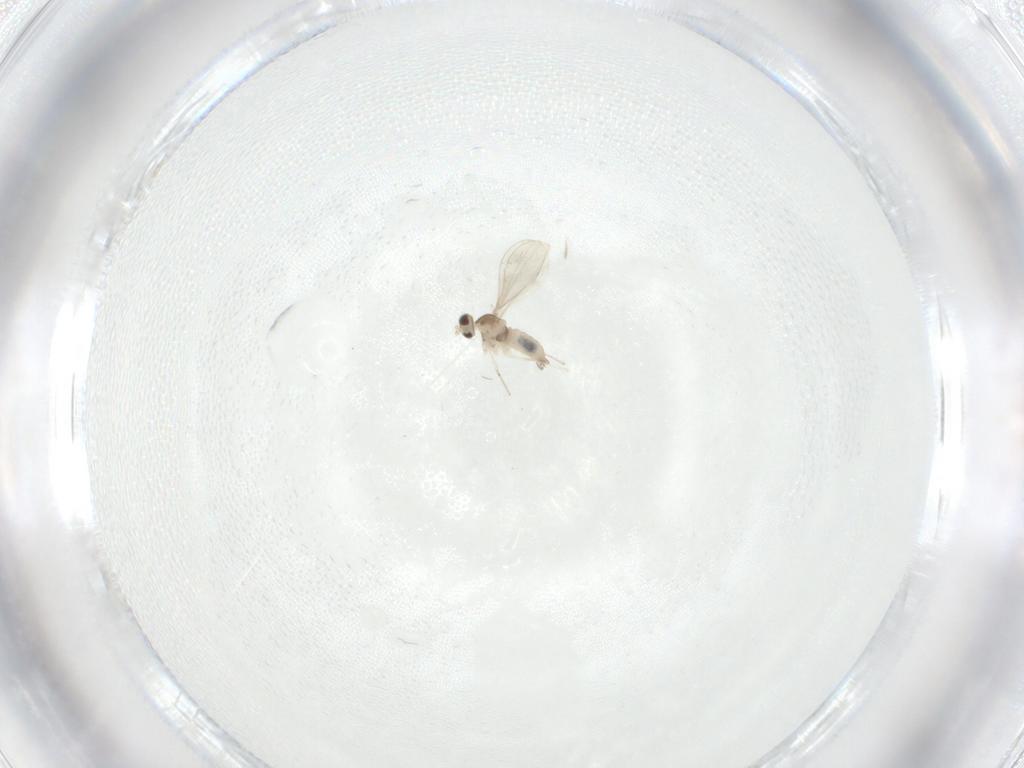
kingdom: Animalia
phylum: Arthropoda
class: Insecta
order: Diptera
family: Cecidomyiidae
